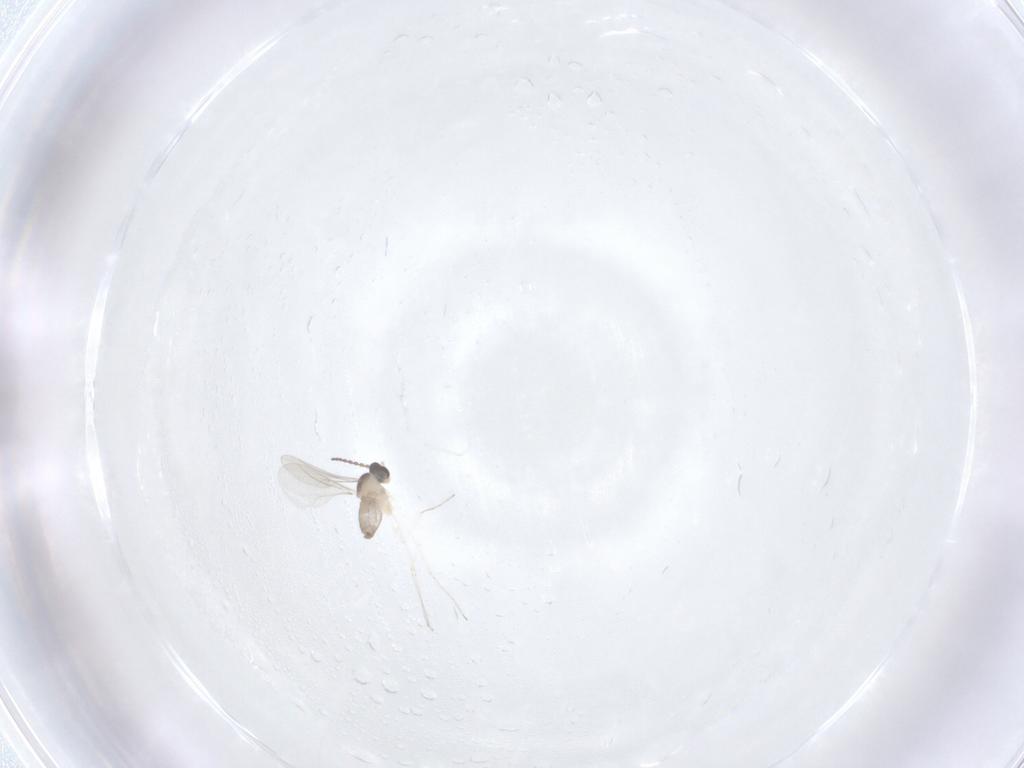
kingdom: Animalia
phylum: Arthropoda
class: Insecta
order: Diptera
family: Cecidomyiidae
